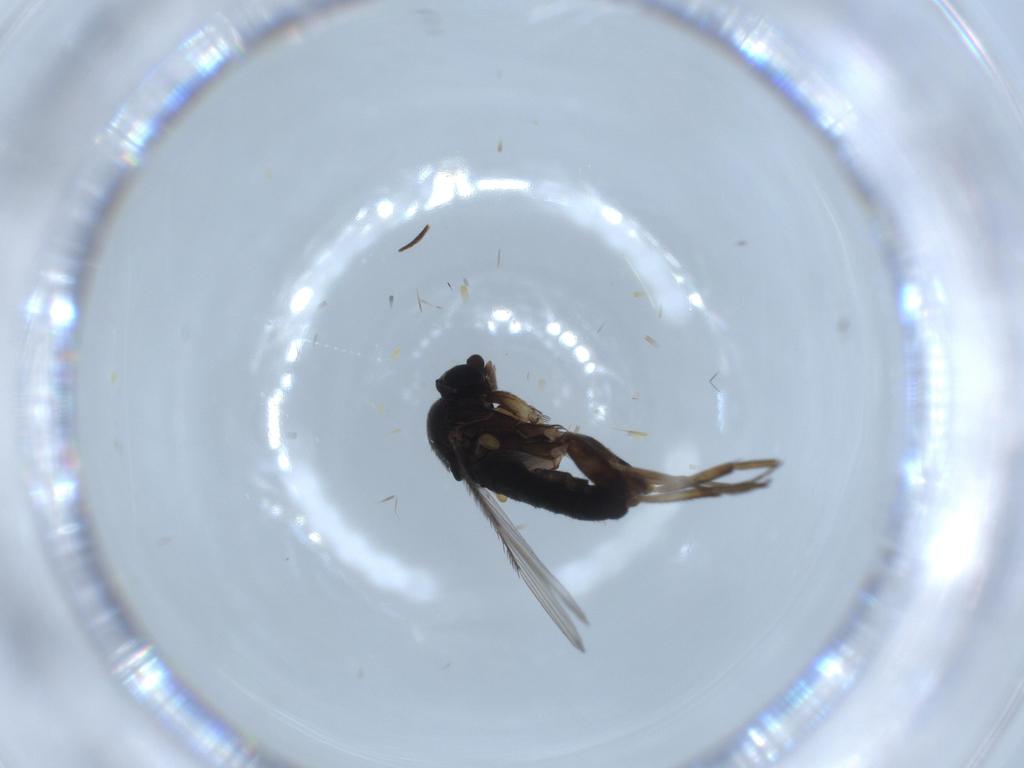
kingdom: Animalia
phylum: Arthropoda
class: Insecta
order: Diptera
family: Phoridae
